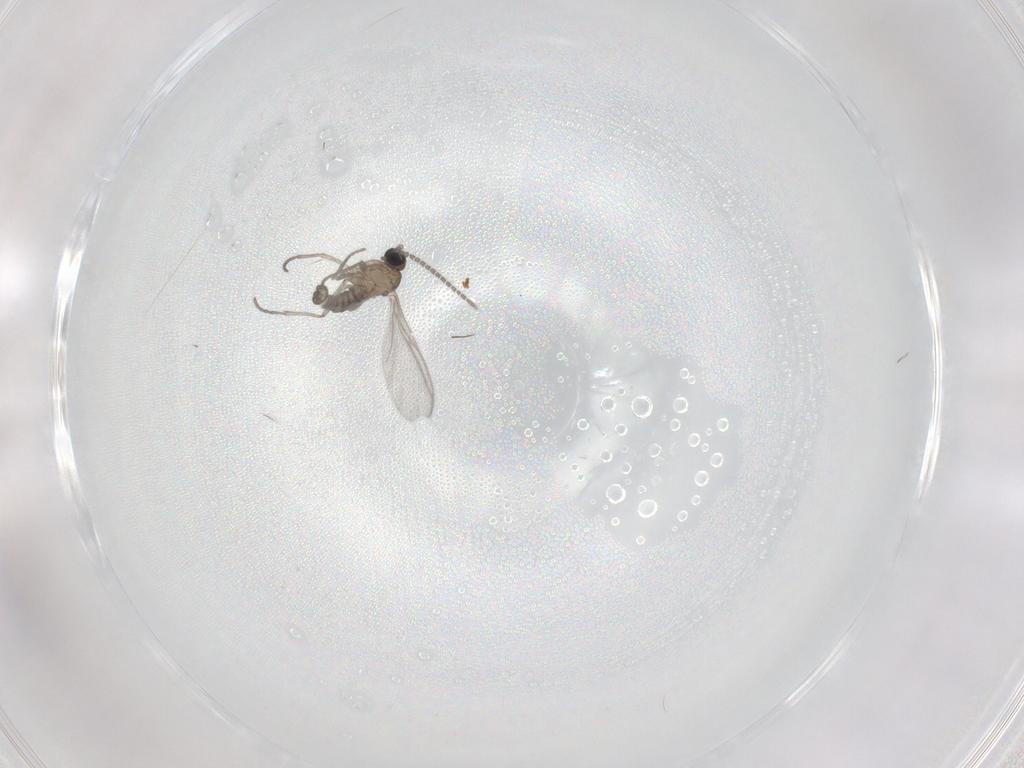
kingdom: Animalia
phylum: Arthropoda
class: Insecta
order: Diptera
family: Sciaridae
